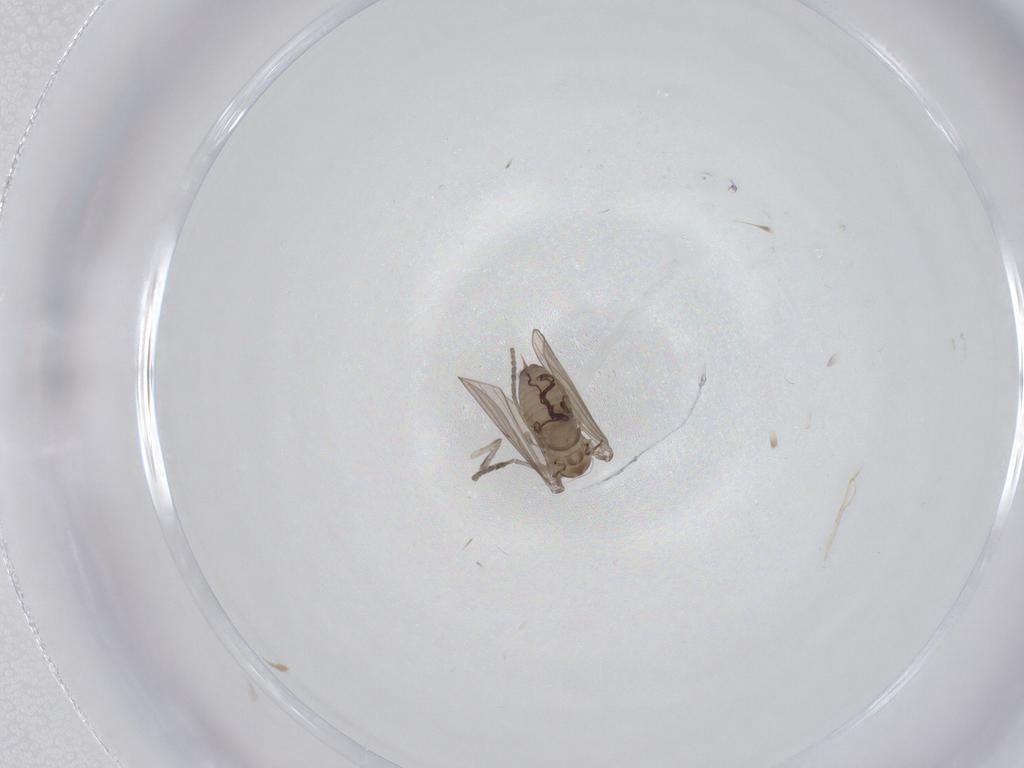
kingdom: Animalia
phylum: Arthropoda
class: Insecta
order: Diptera
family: Psychodidae
